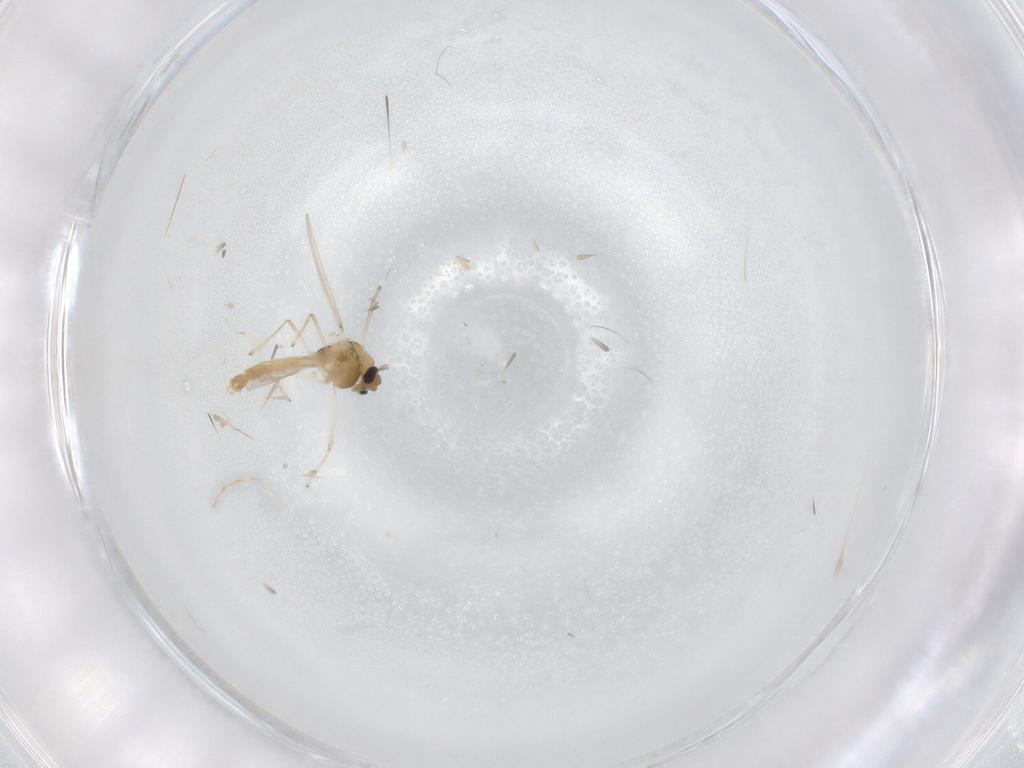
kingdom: Animalia
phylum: Arthropoda
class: Insecta
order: Diptera
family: Chironomidae
